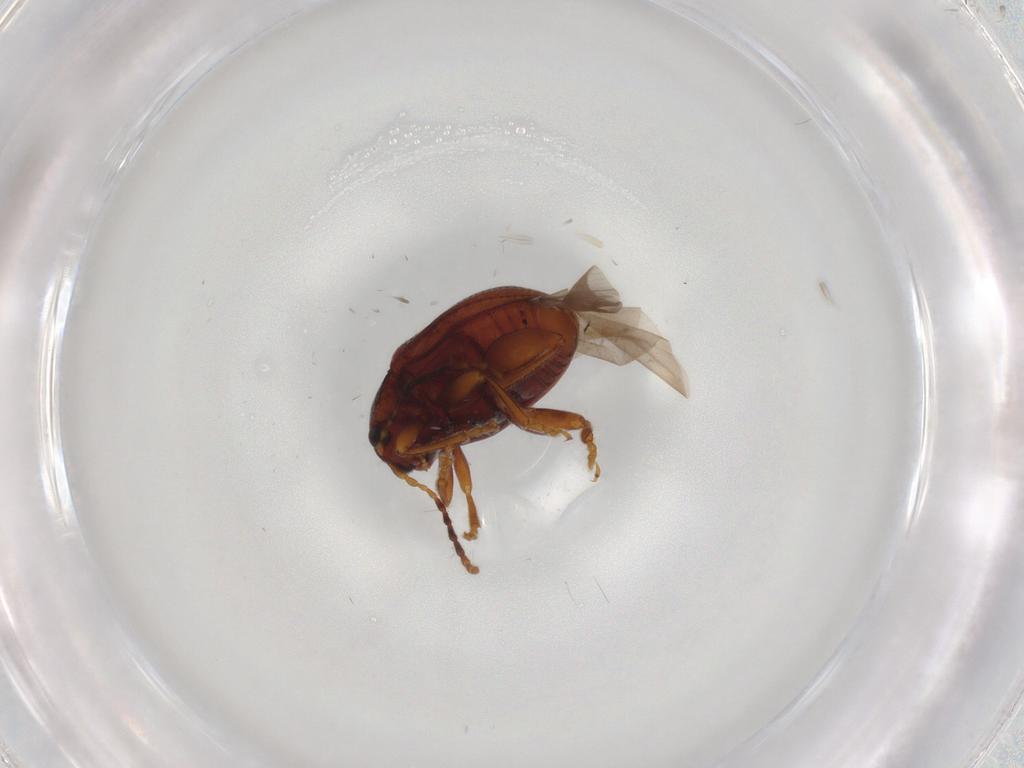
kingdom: Animalia
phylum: Arthropoda
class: Insecta
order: Coleoptera
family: Chrysomelidae
